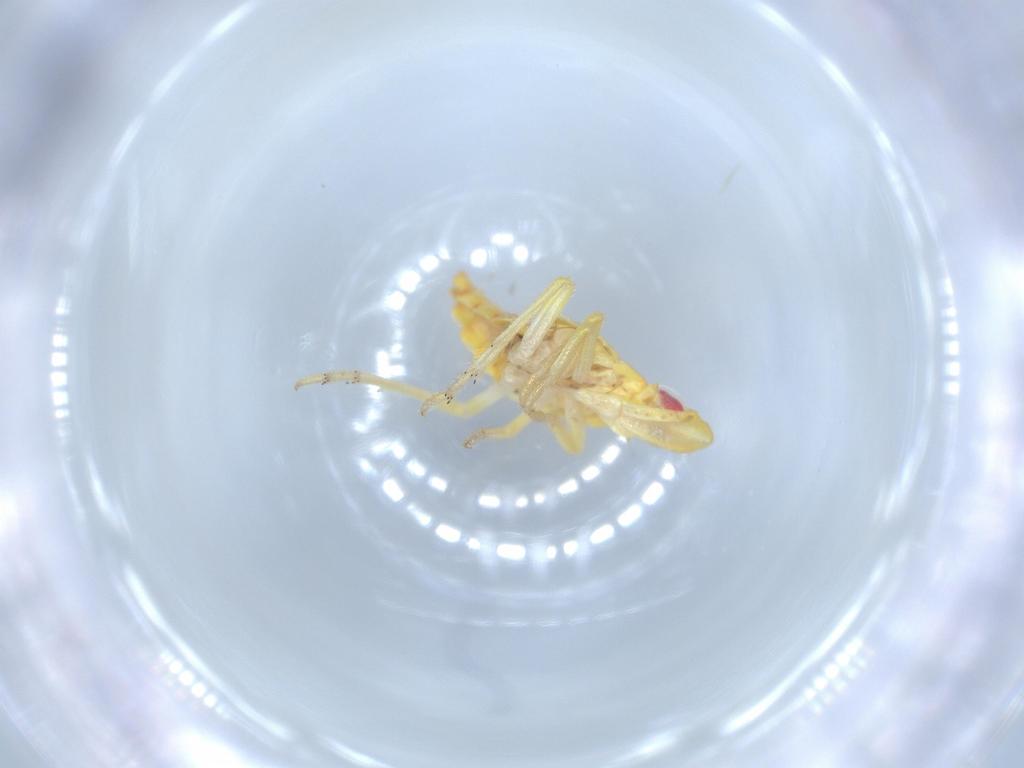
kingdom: Animalia
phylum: Arthropoda
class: Insecta
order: Hemiptera
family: Tropiduchidae
